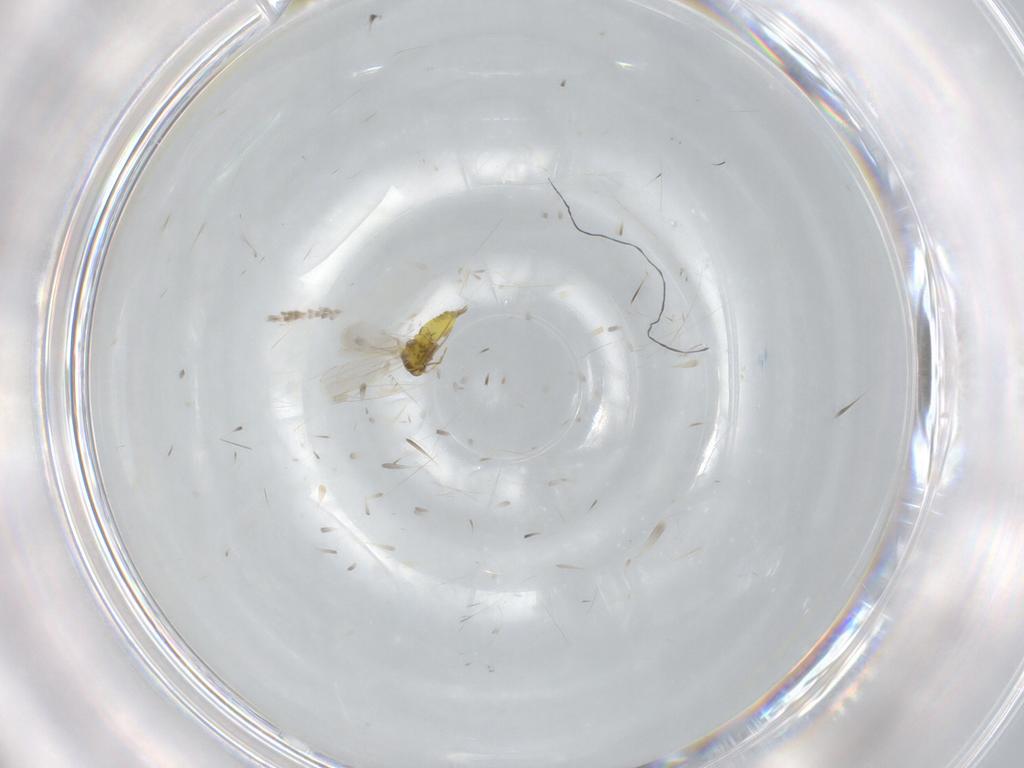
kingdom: Animalia
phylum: Arthropoda
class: Insecta
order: Hemiptera
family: Aleyrodidae
